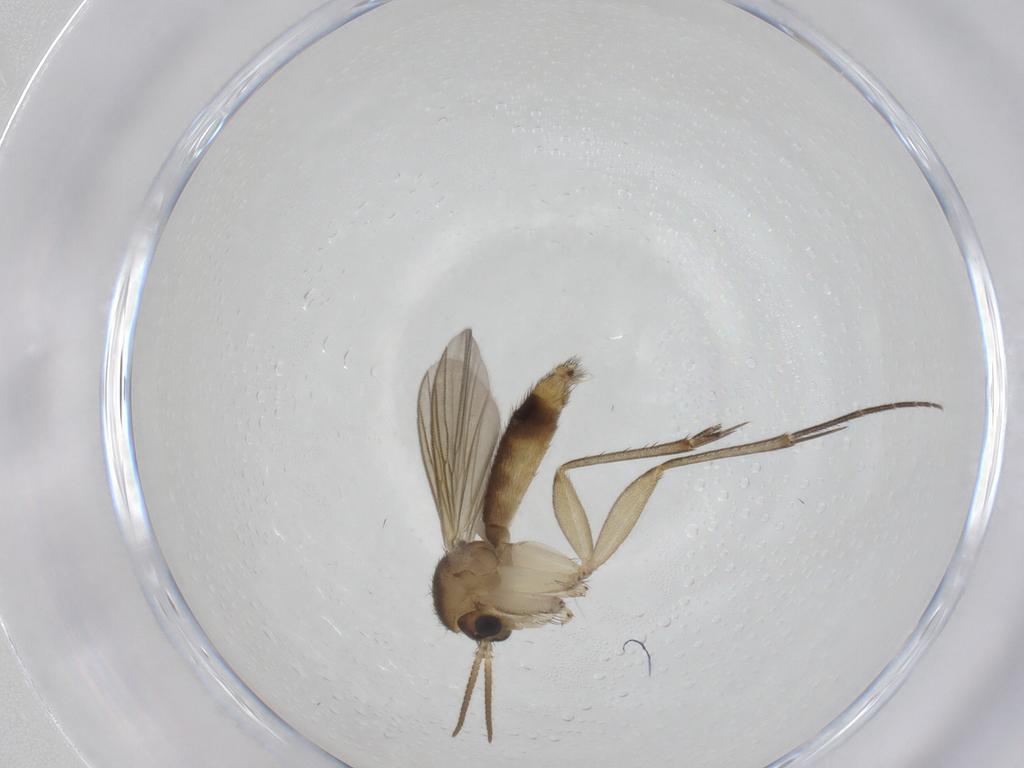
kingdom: Animalia
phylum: Arthropoda
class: Insecta
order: Diptera
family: Mycetophilidae
